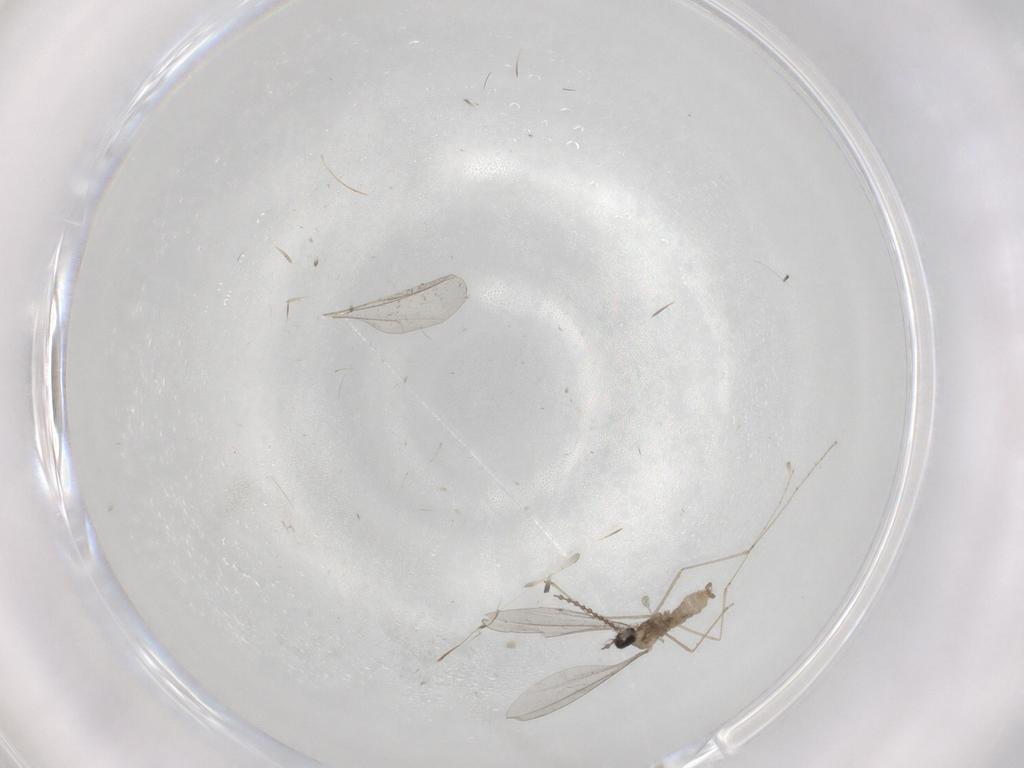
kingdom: Animalia
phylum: Arthropoda
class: Insecta
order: Diptera
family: Cecidomyiidae
